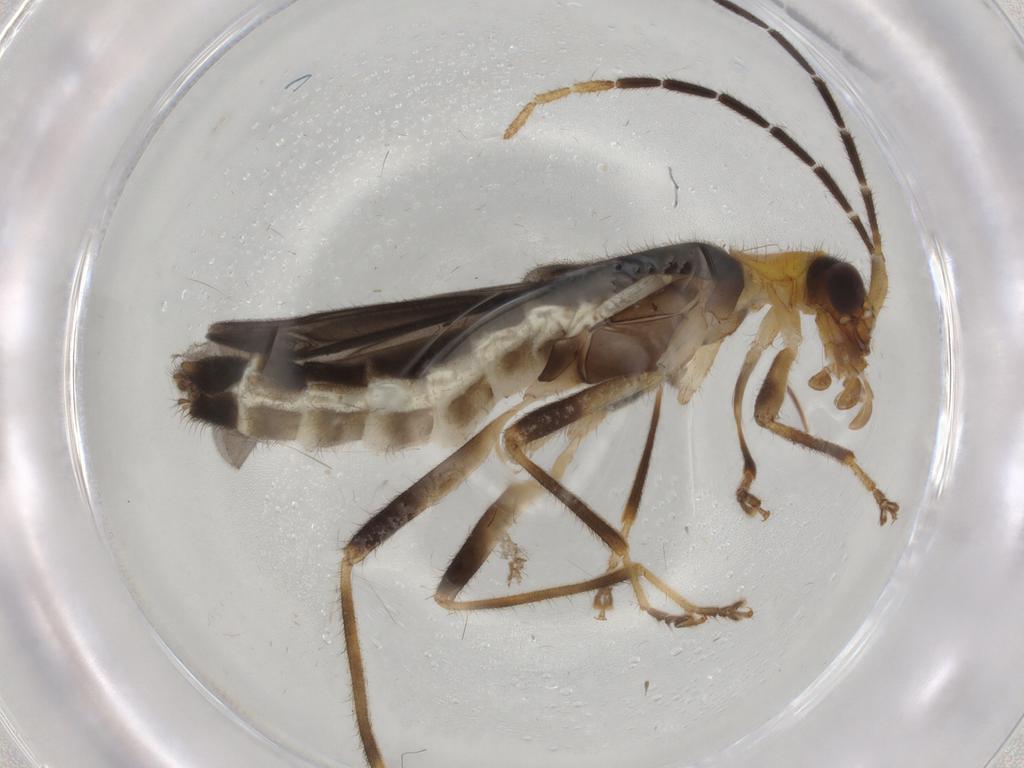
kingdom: Animalia
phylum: Arthropoda
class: Insecta
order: Coleoptera
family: Cantharidae
